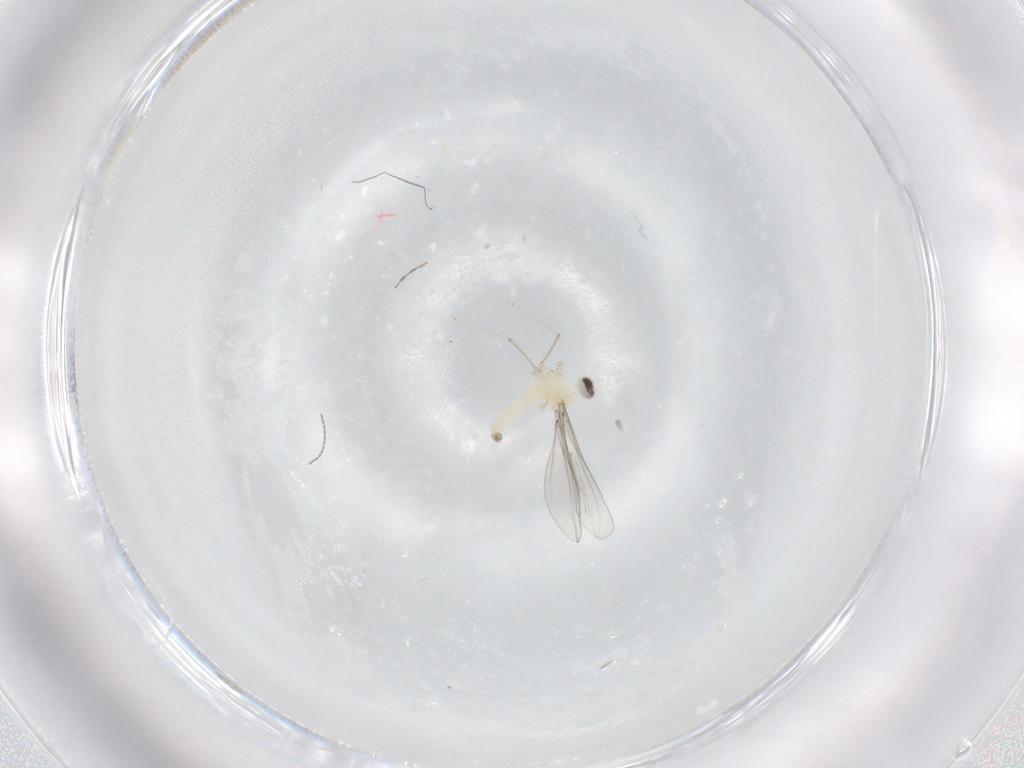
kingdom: Animalia
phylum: Arthropoda
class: Insecta
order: Diptera
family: Cecidomyiidae
